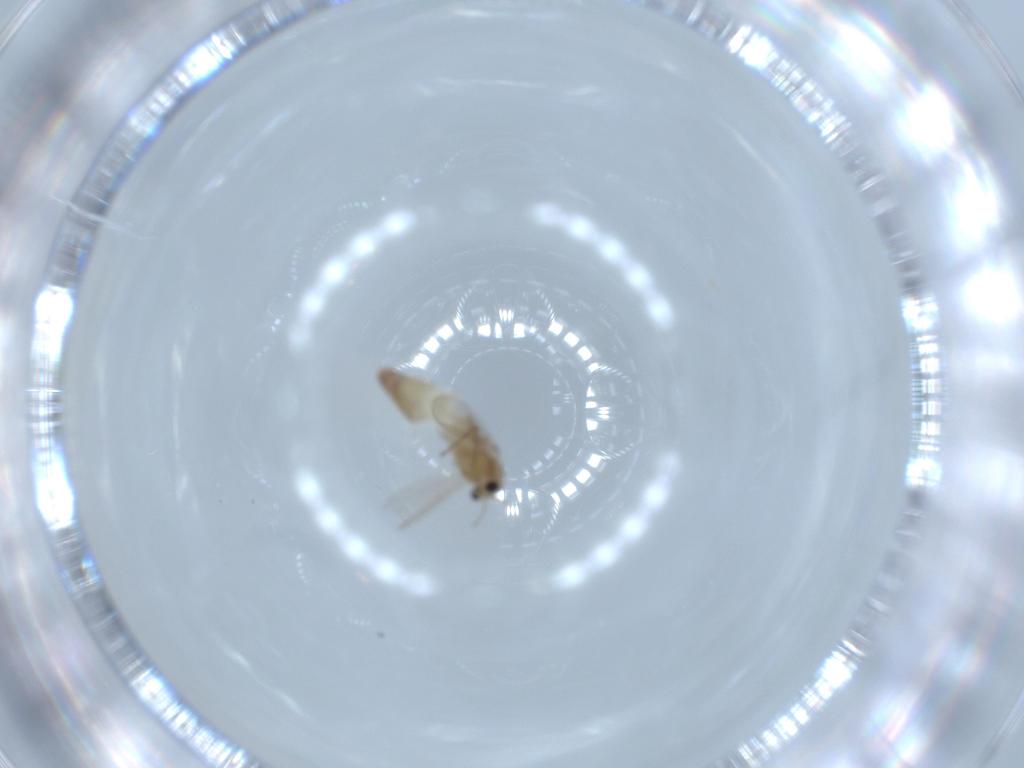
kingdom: Animalia
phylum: Arthropoda
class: Insecta
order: Diptera
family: Chironomidae
